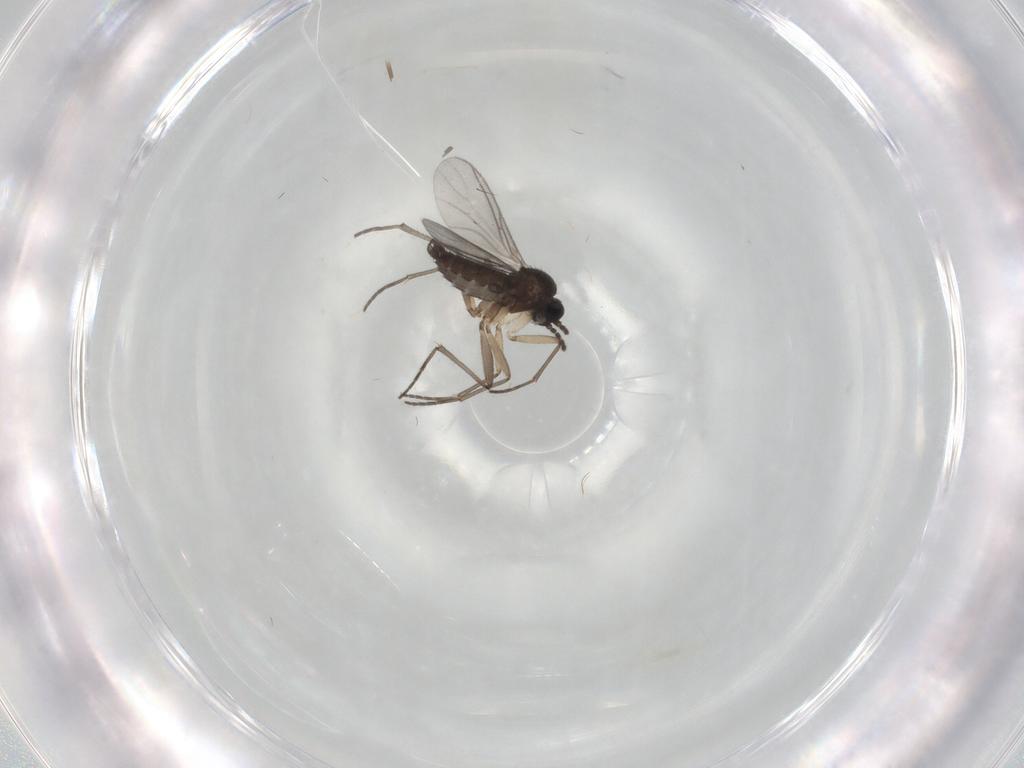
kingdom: Animalia
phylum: Arthropoda
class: Insecta
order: Diptera
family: Sciaridae
